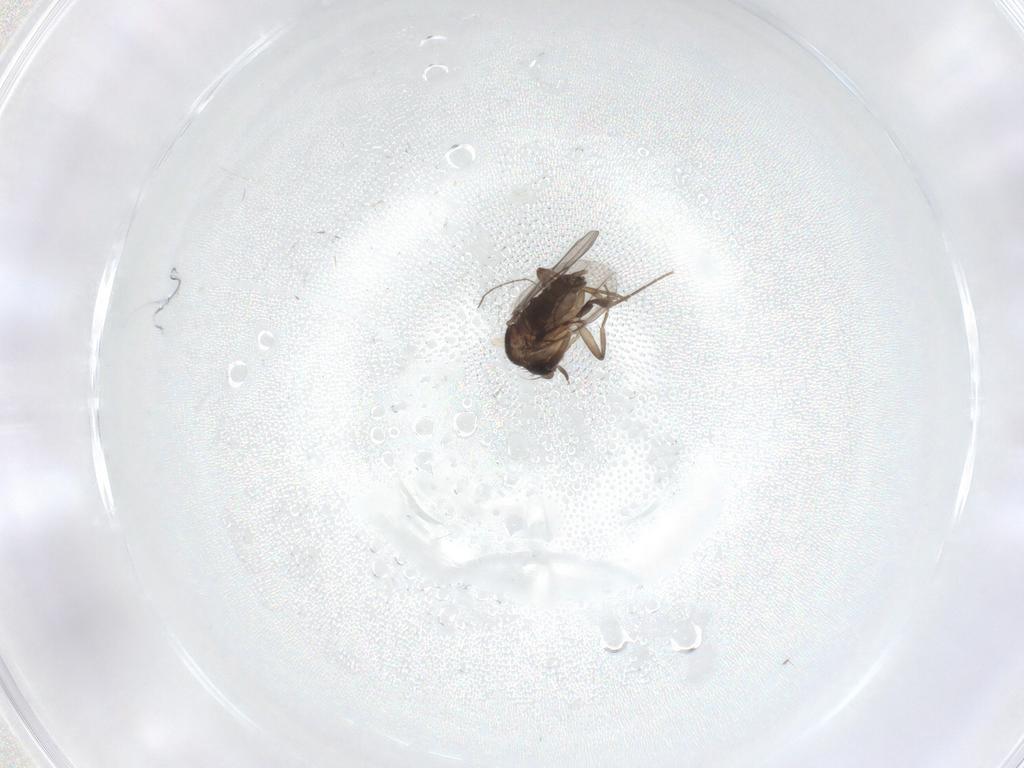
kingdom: Animalia
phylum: Arthropoda
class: Insecta
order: Diptera
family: Phoridae
